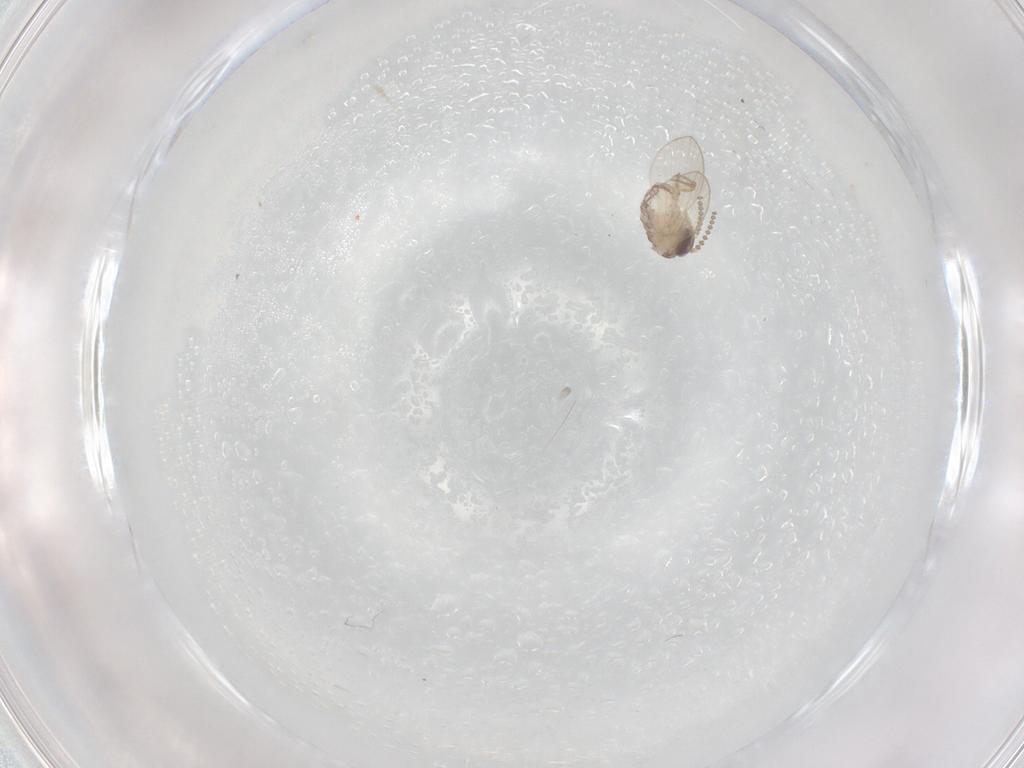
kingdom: Animalia
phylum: Arthropoda
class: Insecta
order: Diptera
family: Psychodidae
